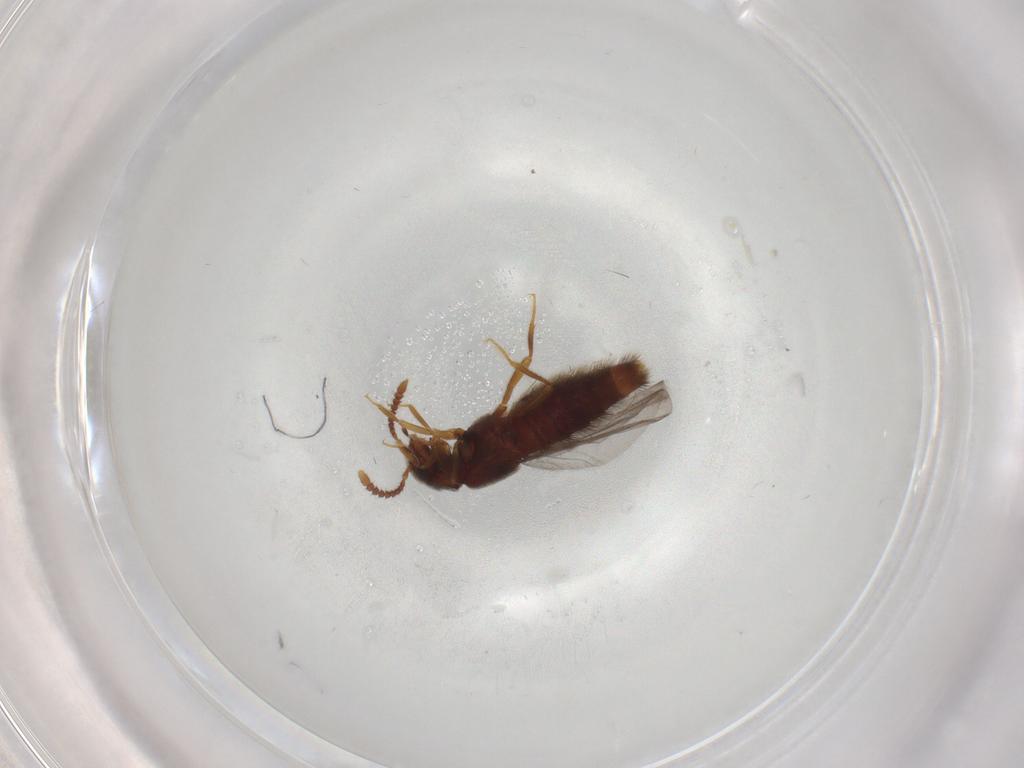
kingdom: Animalia
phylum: Arthropoda
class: Insecta
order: Coleoptera
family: Staphylinidae
